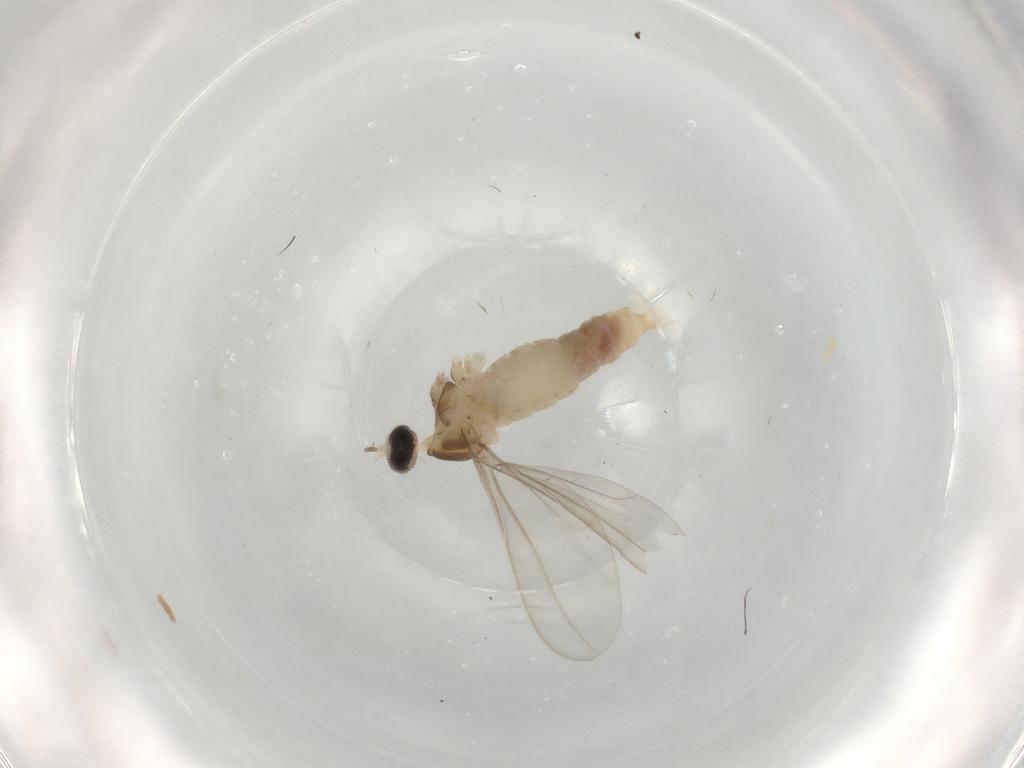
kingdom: Animalia
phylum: Arthropoda
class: Insecta
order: Diptera
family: Cecidomyiidae
